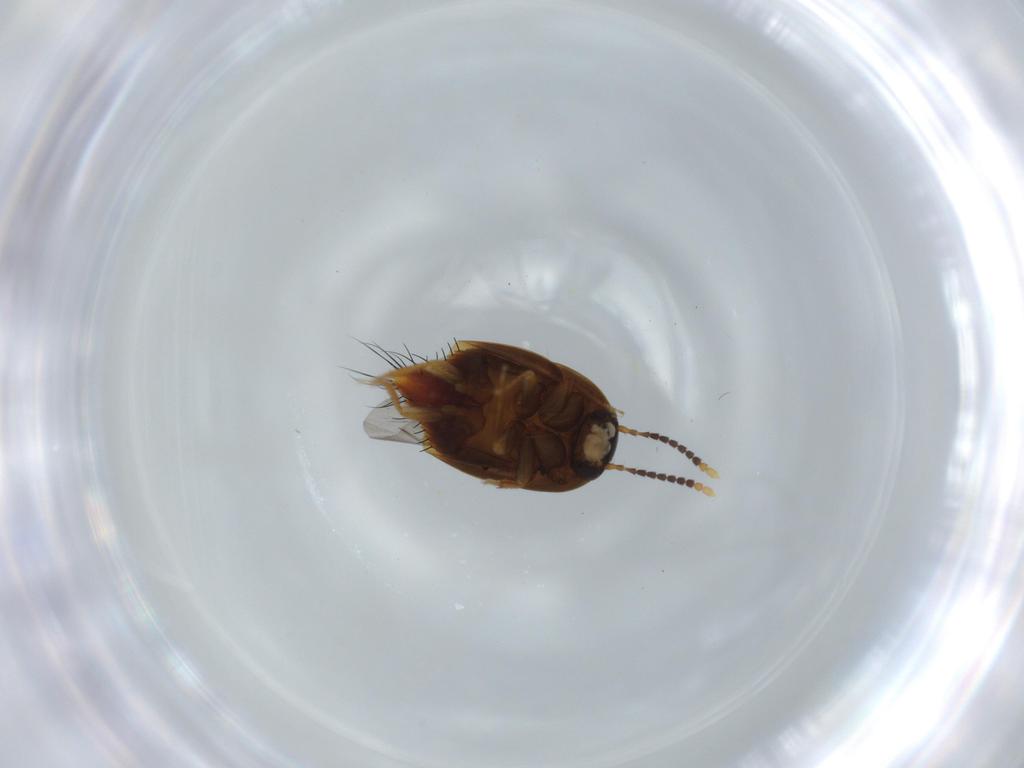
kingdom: Animalia
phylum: Arthropoda
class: Insecta
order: Coleoptera
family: Staphylinidae
